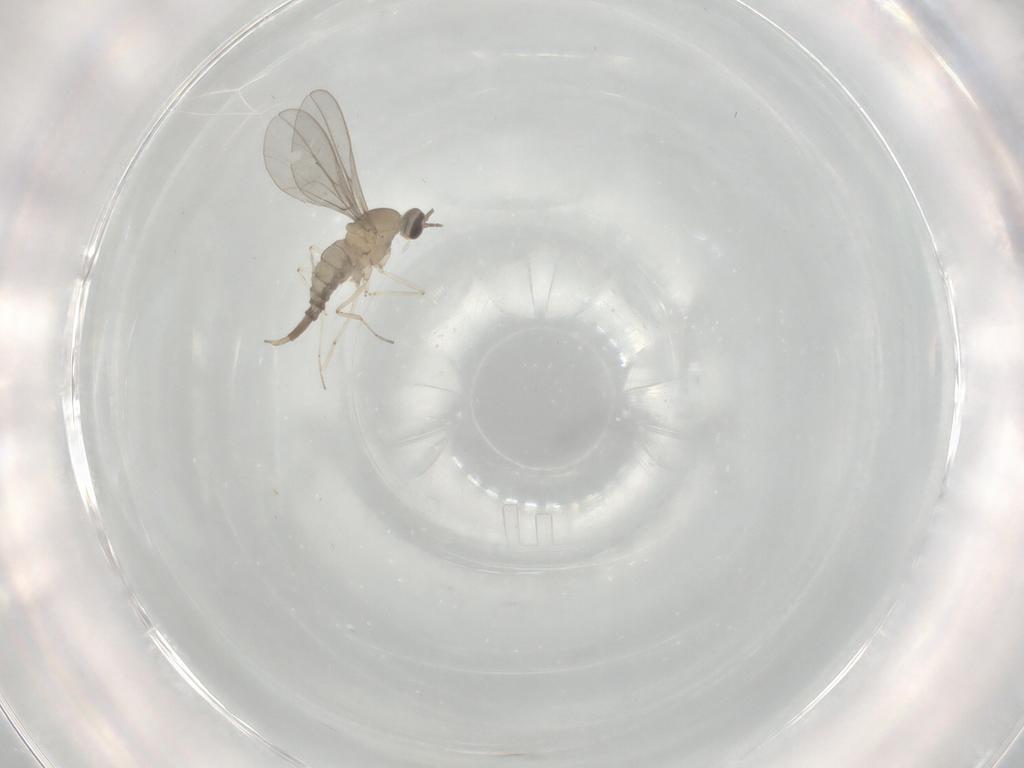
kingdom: Animalia
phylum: Arthropoda
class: Insecta
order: Diptera
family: Cecidomyiidae
